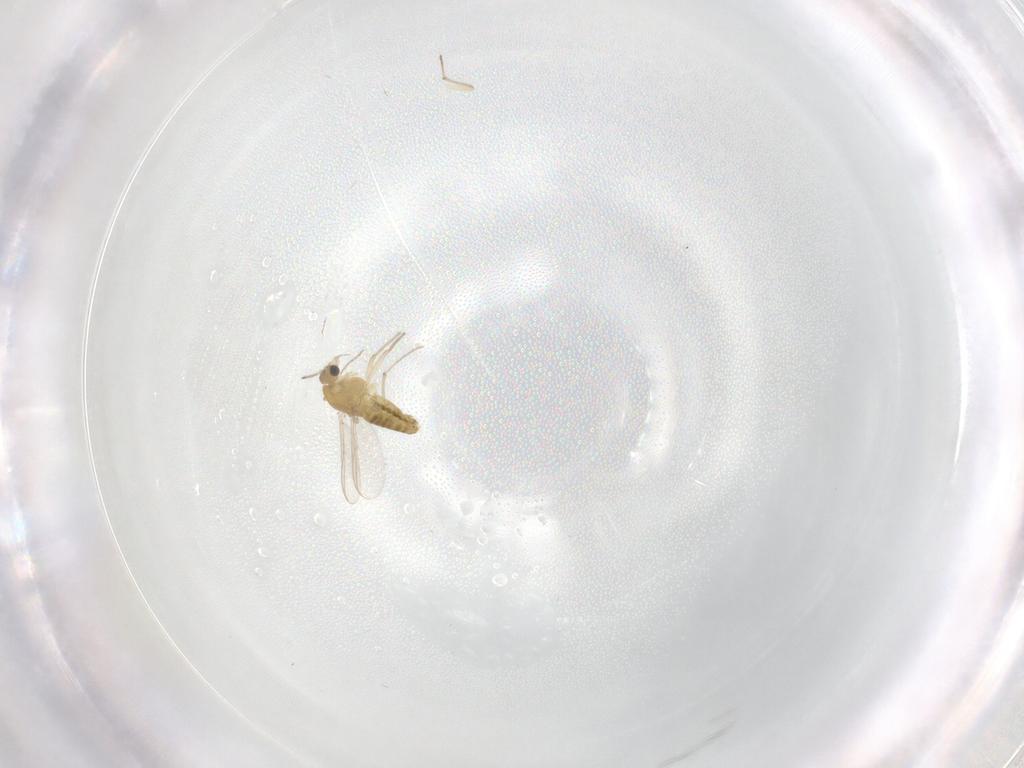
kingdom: Animalia
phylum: Arthropoda
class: Insecta
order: Diptera
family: Chironomidae
